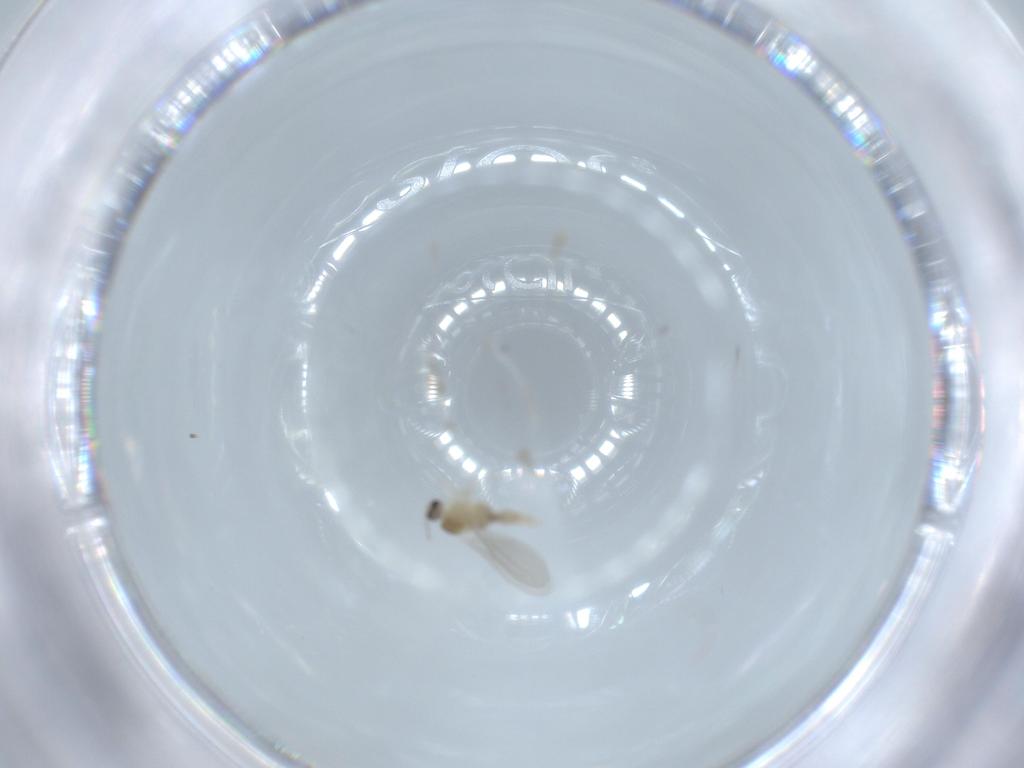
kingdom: Animalia
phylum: Arthropoda
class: Insecta
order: Diptera
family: Cecidomyiidae
